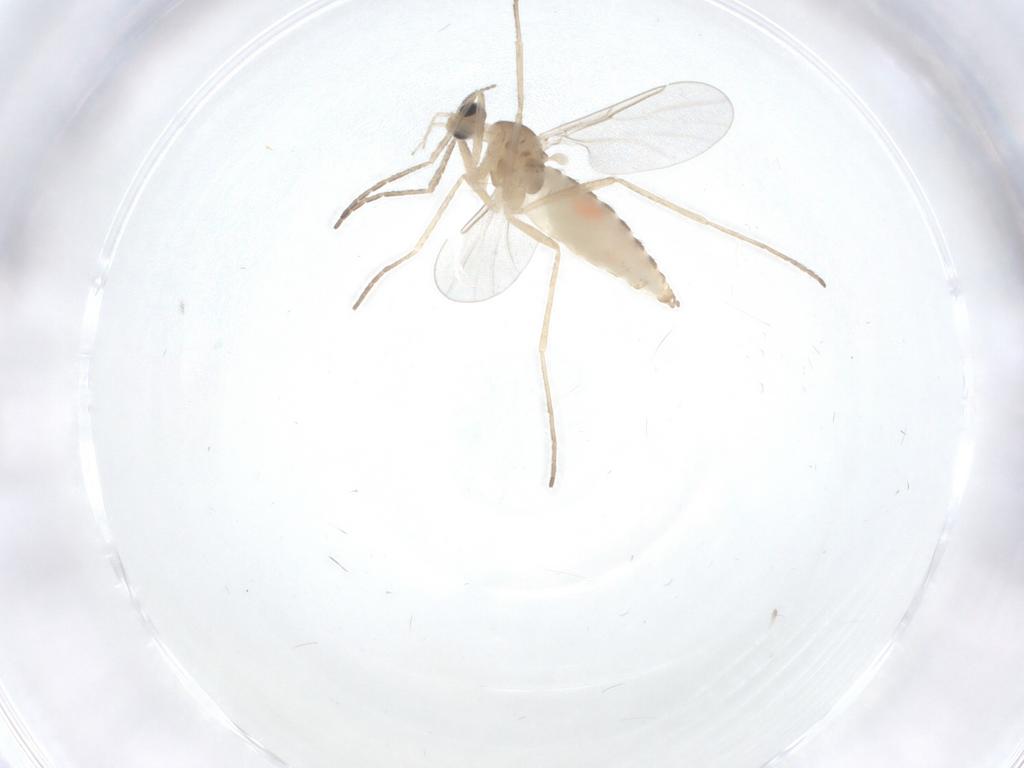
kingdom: Animalia
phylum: Arthropoda
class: Insecta
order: Diptera
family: Cecidomyiidae
